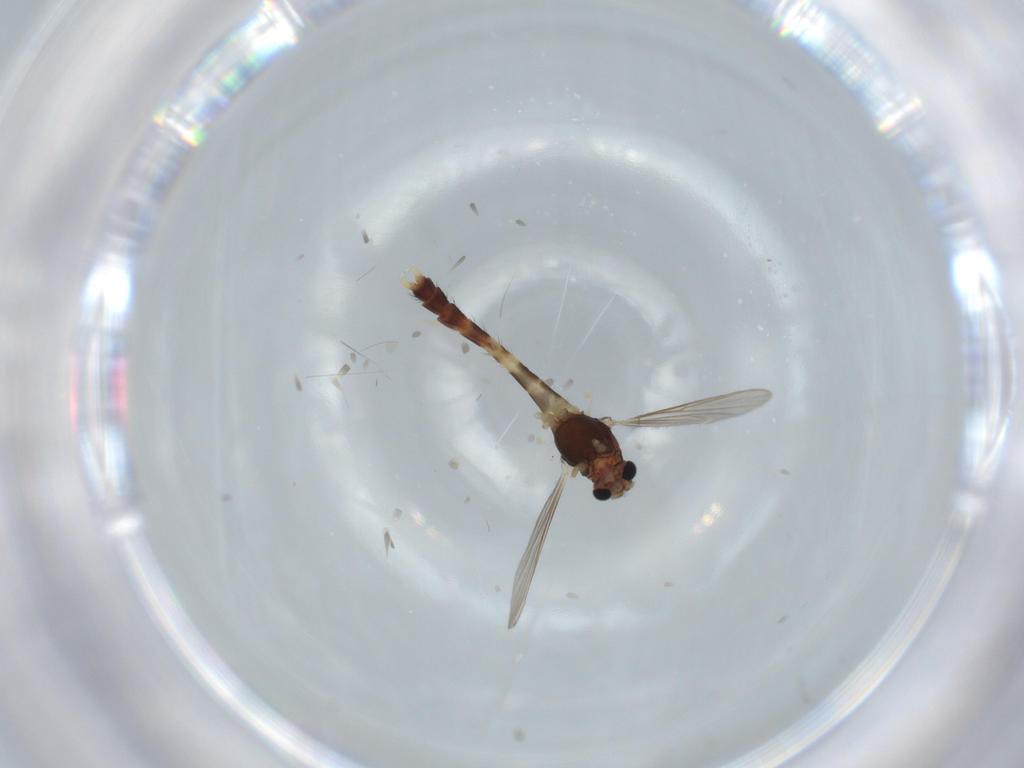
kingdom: Animalia
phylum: Arthropoda
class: Insecta
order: Diptera
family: Chironomidae
